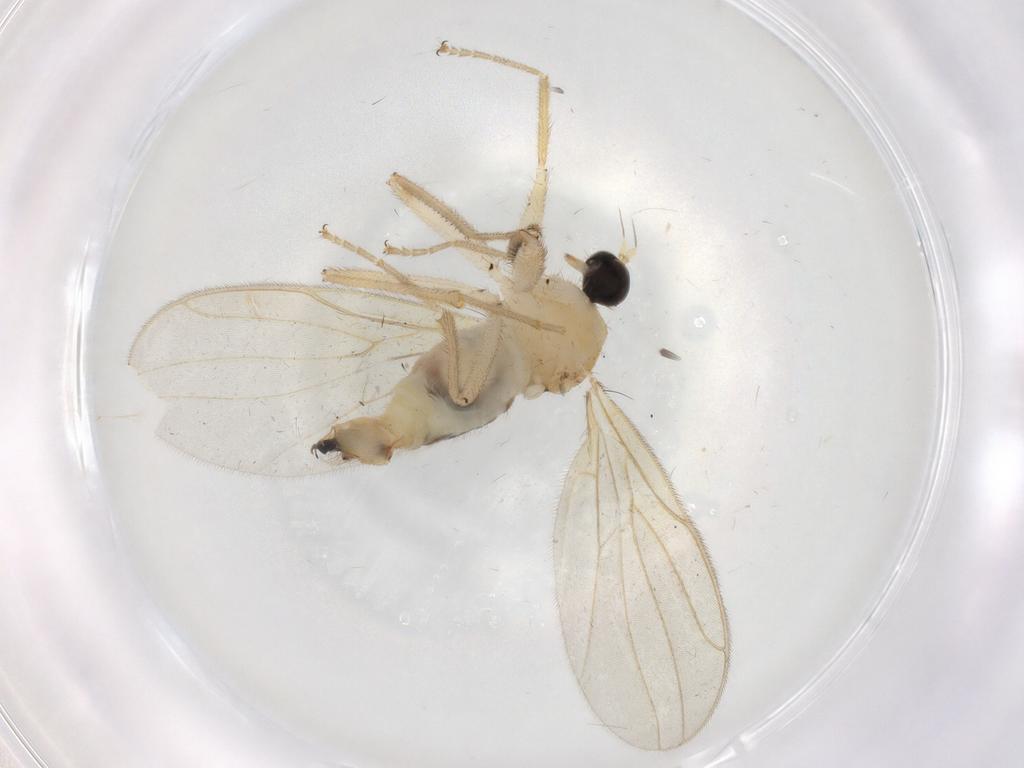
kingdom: Animalia
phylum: Arthropoda
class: Insecta
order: Diptera
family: Hybotidae
